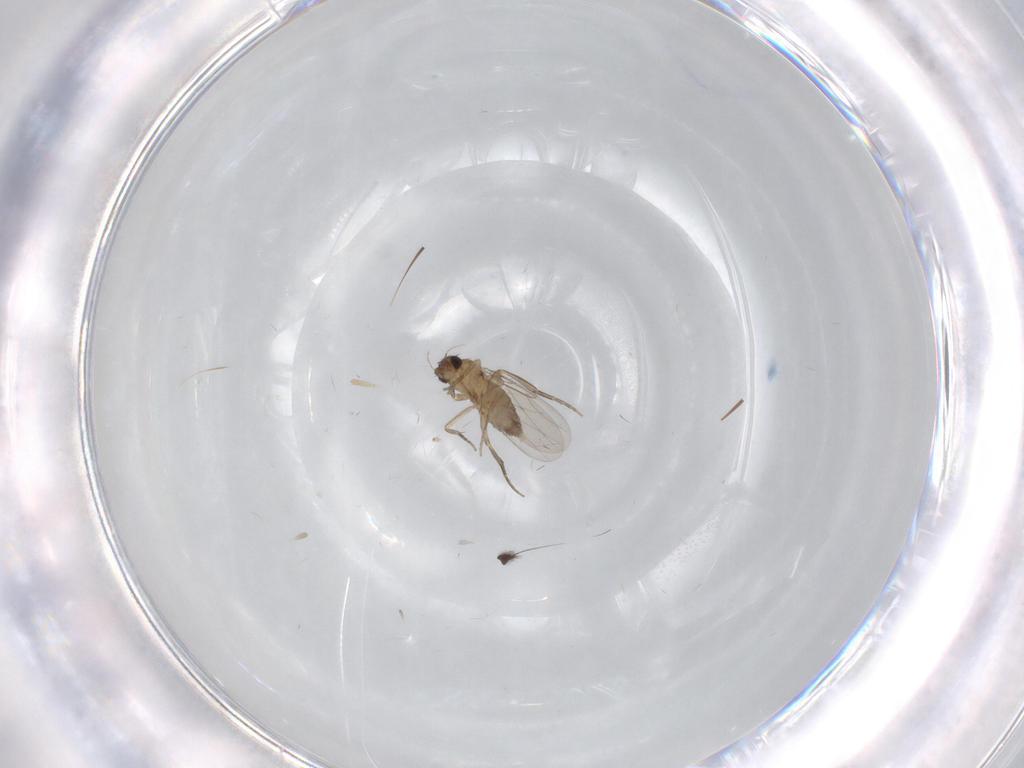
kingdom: Animalia
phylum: Arthropoda
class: Insecta
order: Diptera
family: Phoridae
